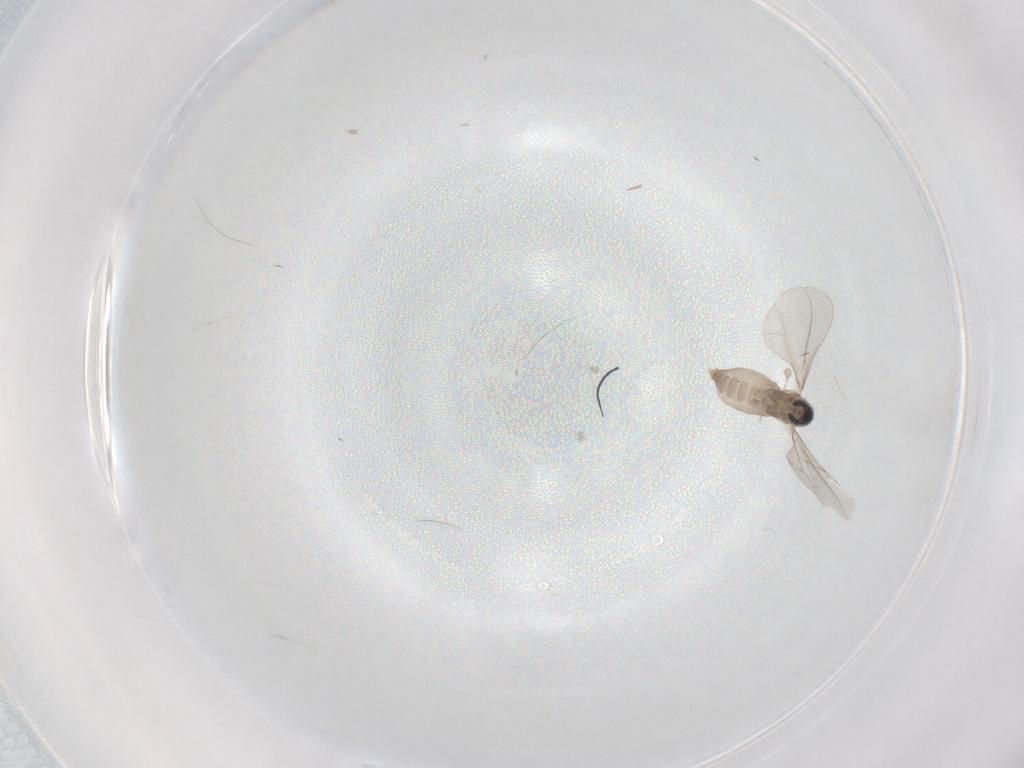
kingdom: Animalia
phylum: Arthropoda
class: Insecta
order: Diptera
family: Cecidomyiidae
